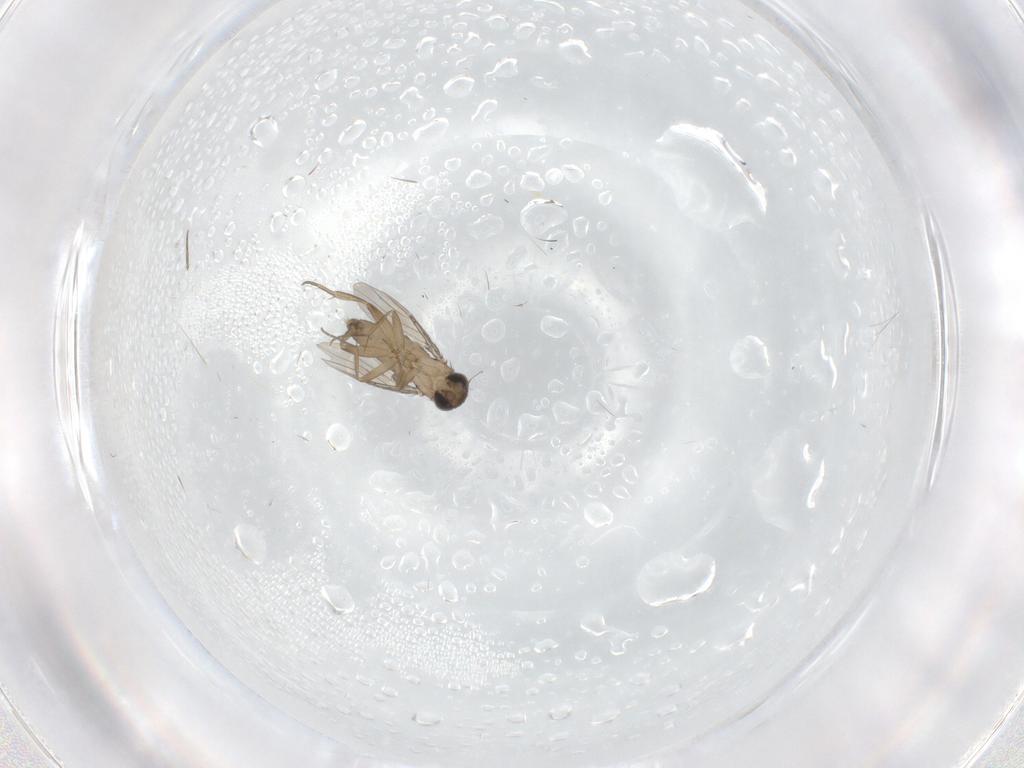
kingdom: Animalia
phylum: Arthropoda
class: Insecta
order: Diptera
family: Phoridae
